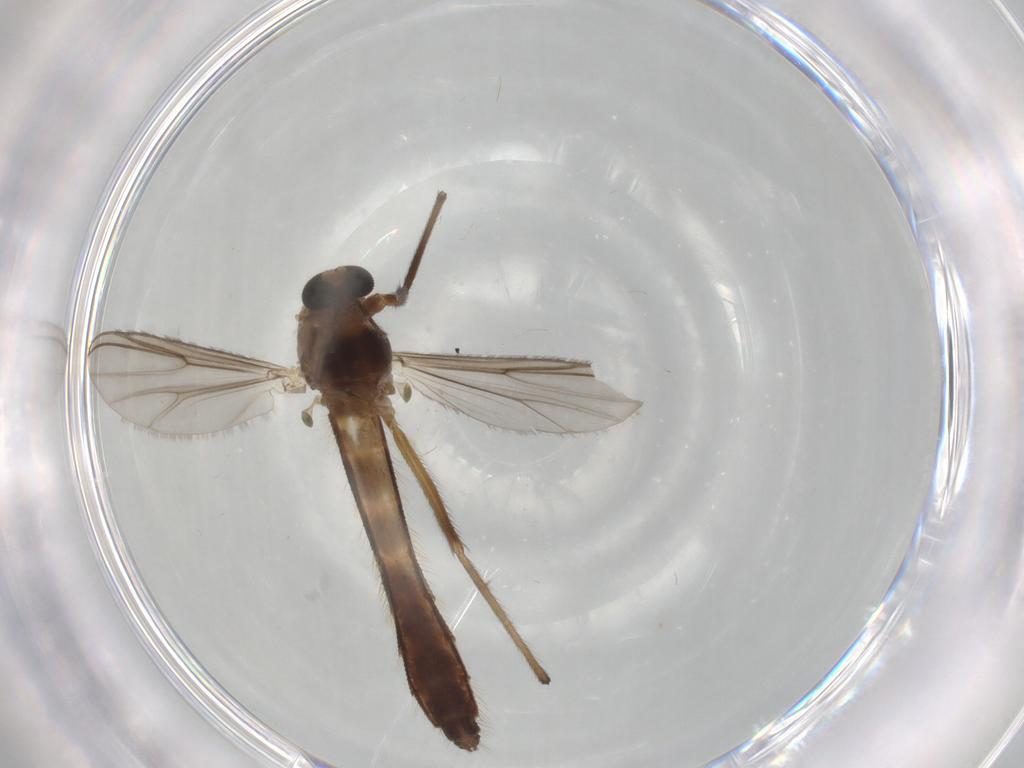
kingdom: Animalia
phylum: Arthropoda
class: Insecta
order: Diptera
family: Chironomidae
